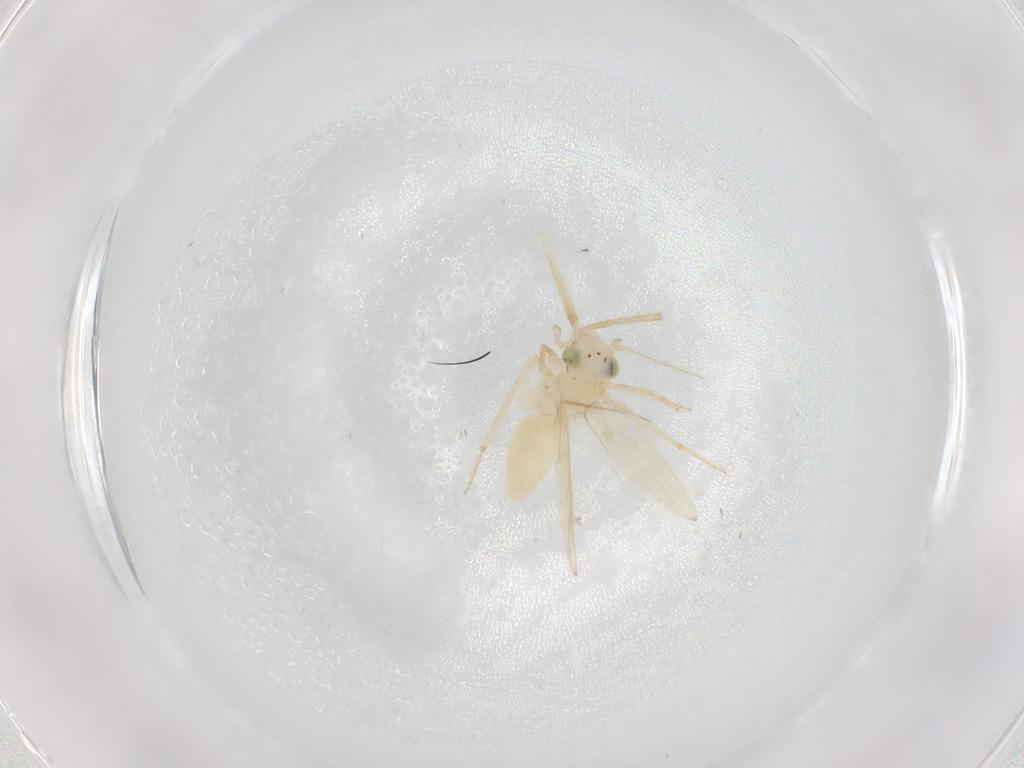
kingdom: Animalia
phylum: Arthropoda
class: Insecta
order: Psocodea
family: Lepidopsocidae
